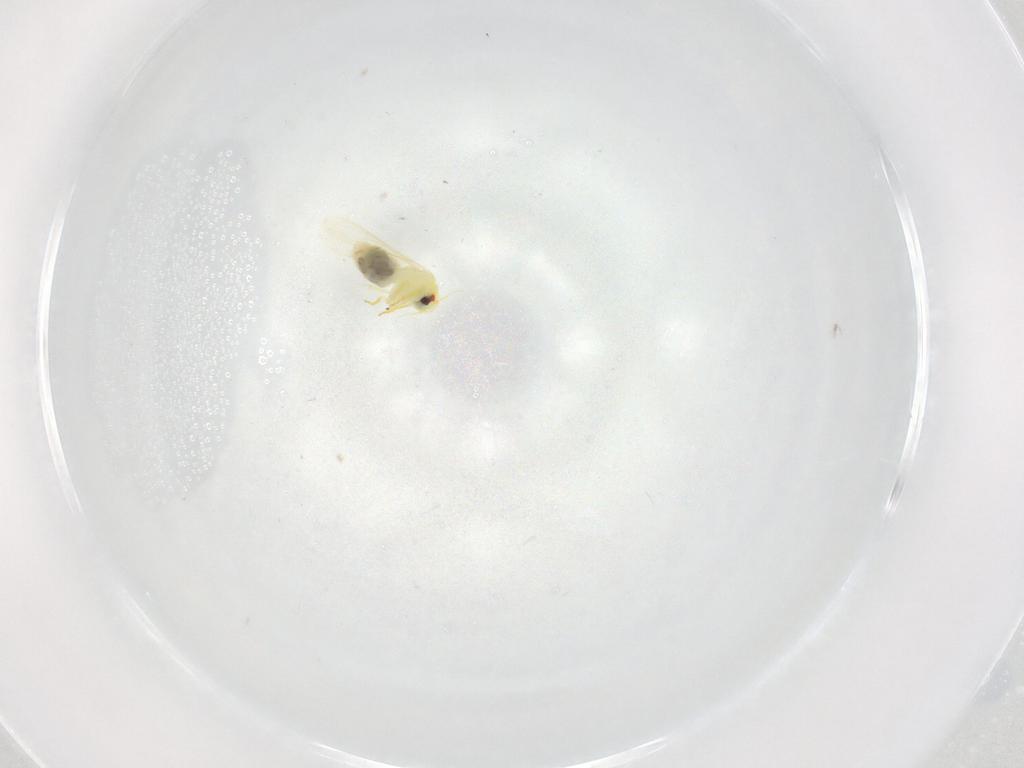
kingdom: Animalia
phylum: Arthropoda
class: Insecta
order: Hemiptera
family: Aleyrodidae
